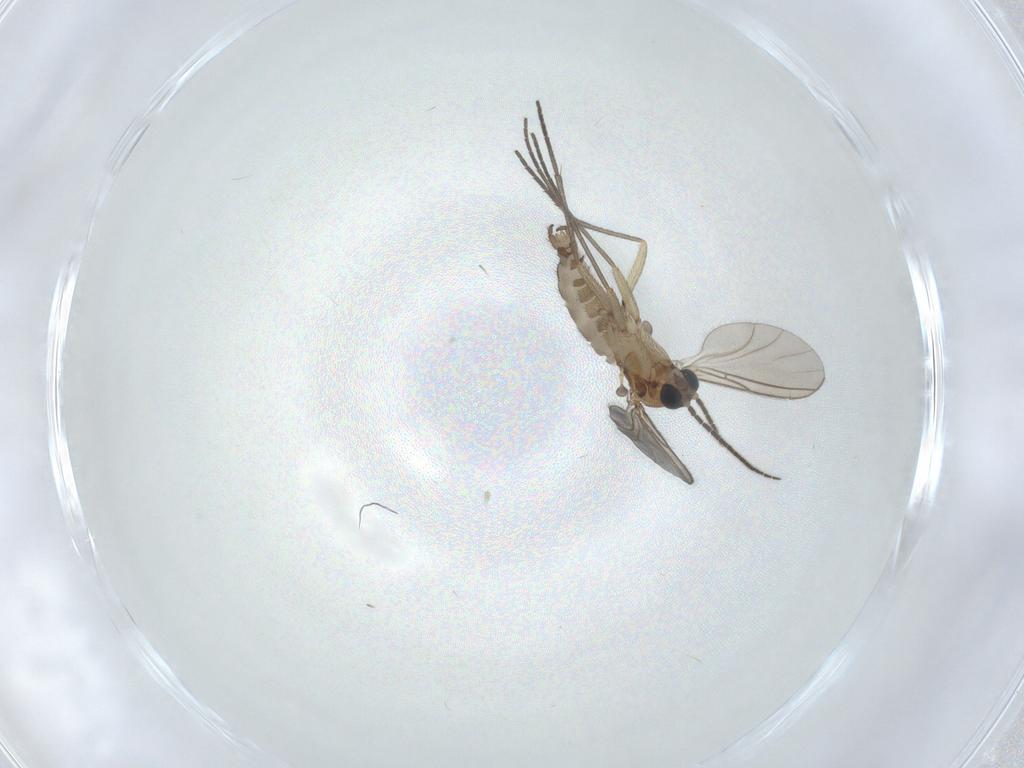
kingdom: Animalia
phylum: Arthropoda
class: Insecta
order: Diptera
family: Sciaridae
